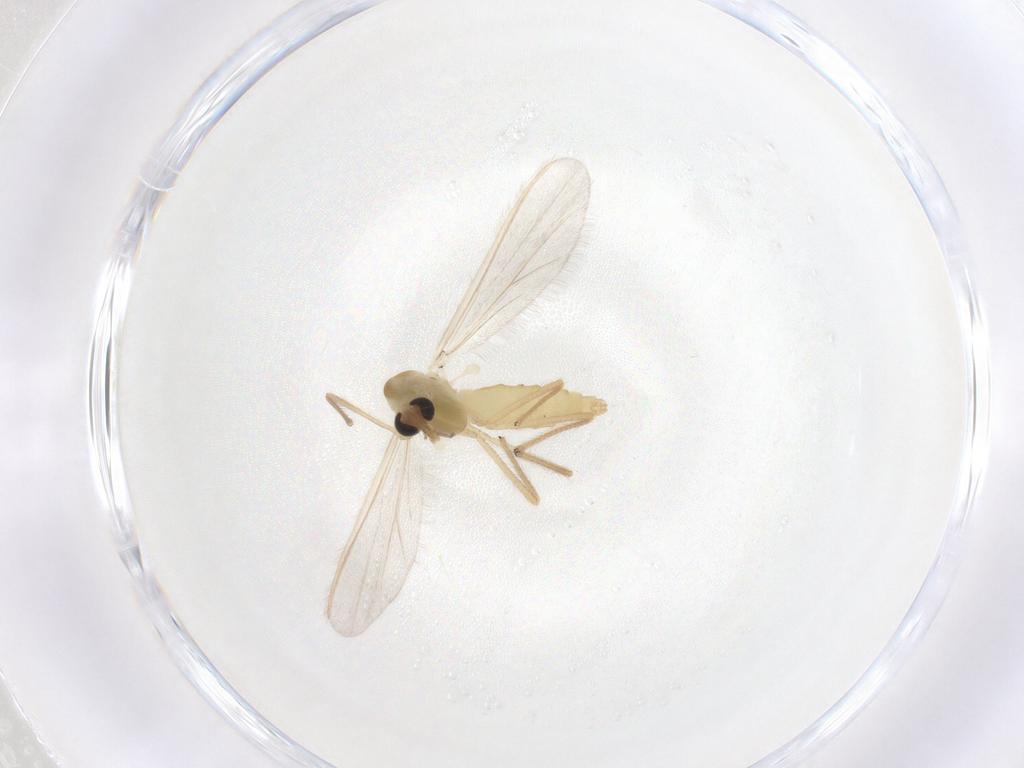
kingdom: Animalia
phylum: Arthropoda
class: Insecta
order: Diptera
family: Chironomidae
